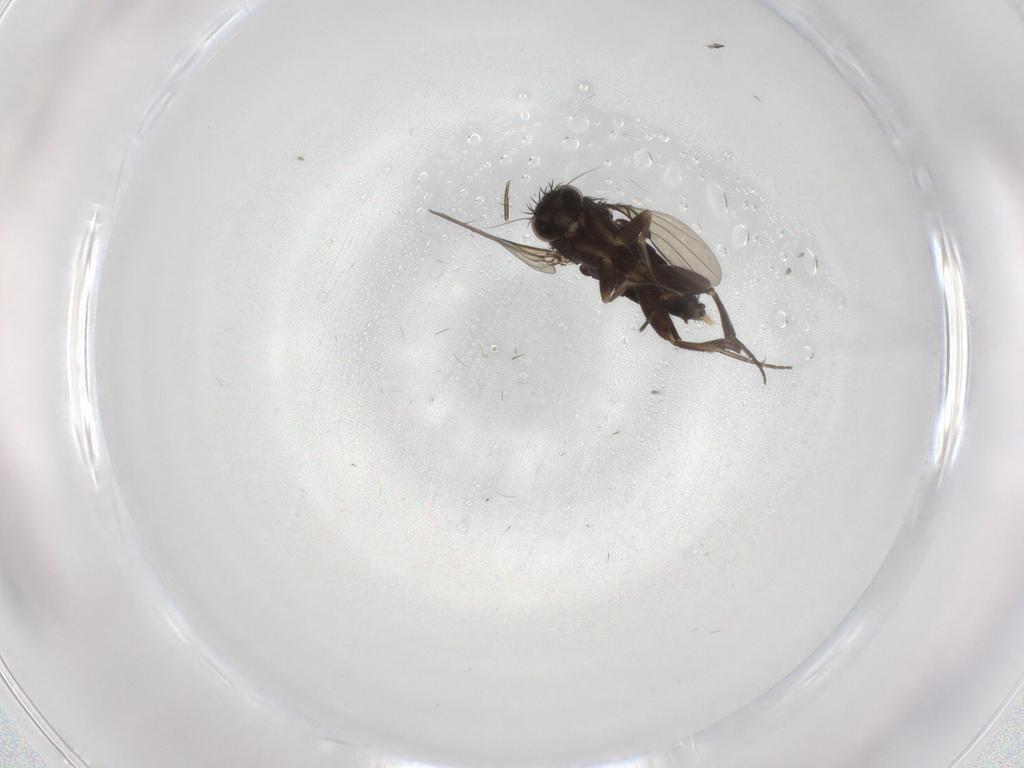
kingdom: Animalia
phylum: Arthropoda
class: Insecta
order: Diptera
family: Phoridae
